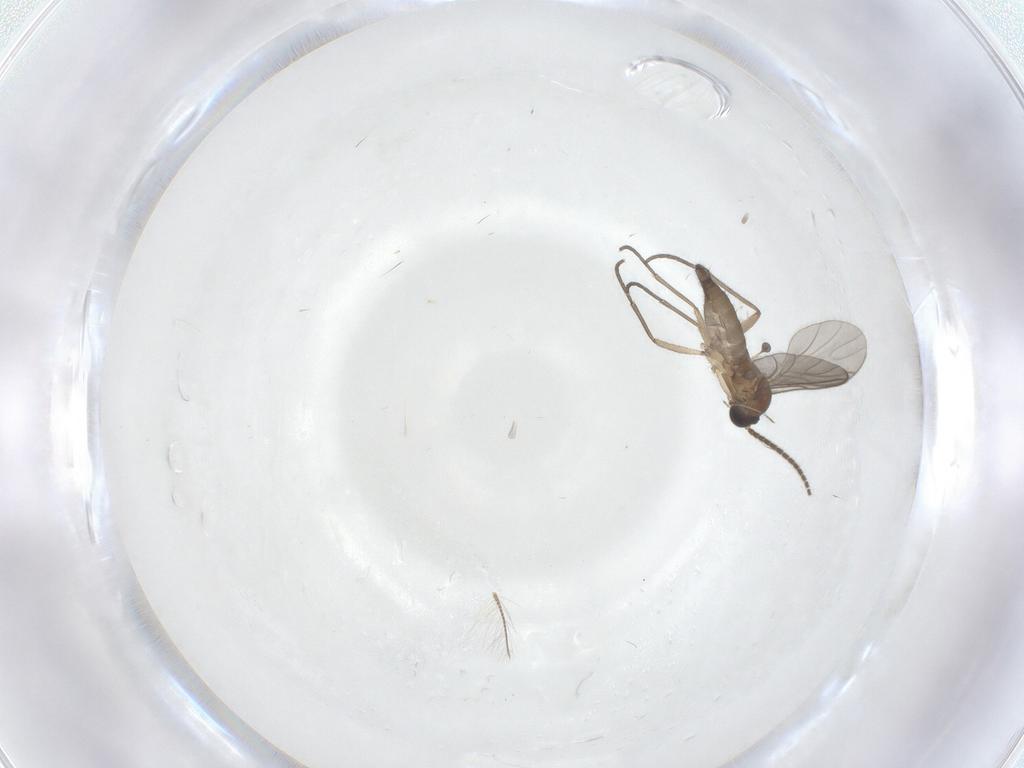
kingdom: Animalia
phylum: Arthropoda
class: Insecta
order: Diptera
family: Sciaridae
